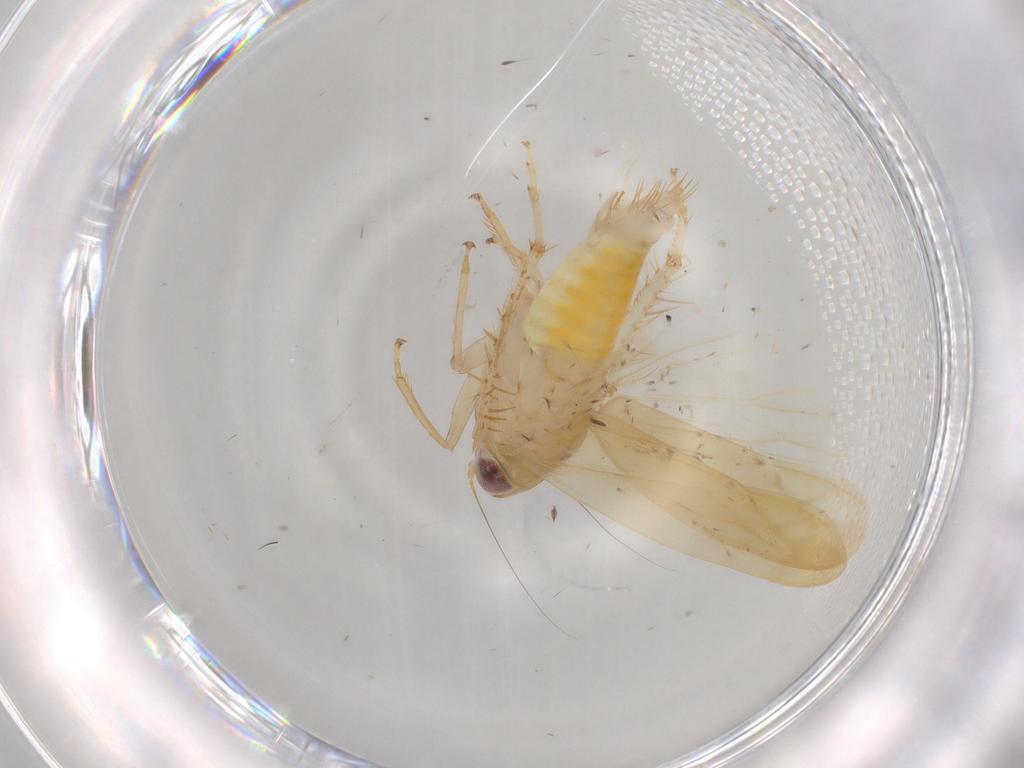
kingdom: Animalia
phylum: Arthropoda
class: Insecta
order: Hemiptera
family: Cicadellidae
